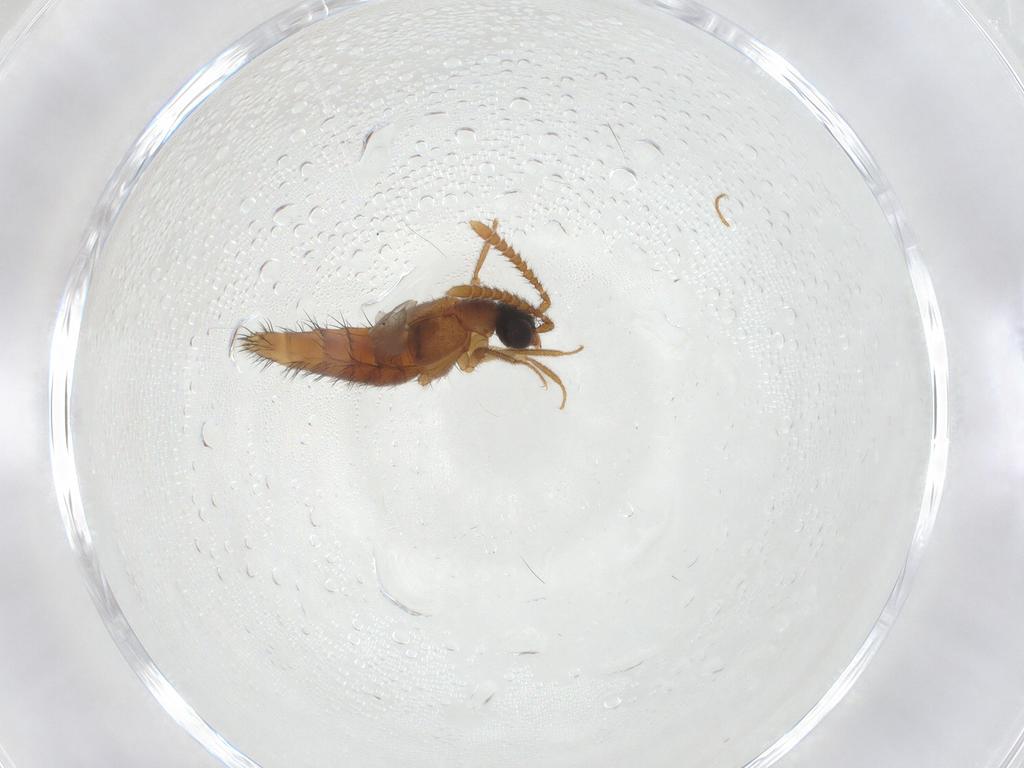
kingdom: Animalia
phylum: Arthropoda
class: Insecta
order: Coleoptera
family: Staphylinidae
